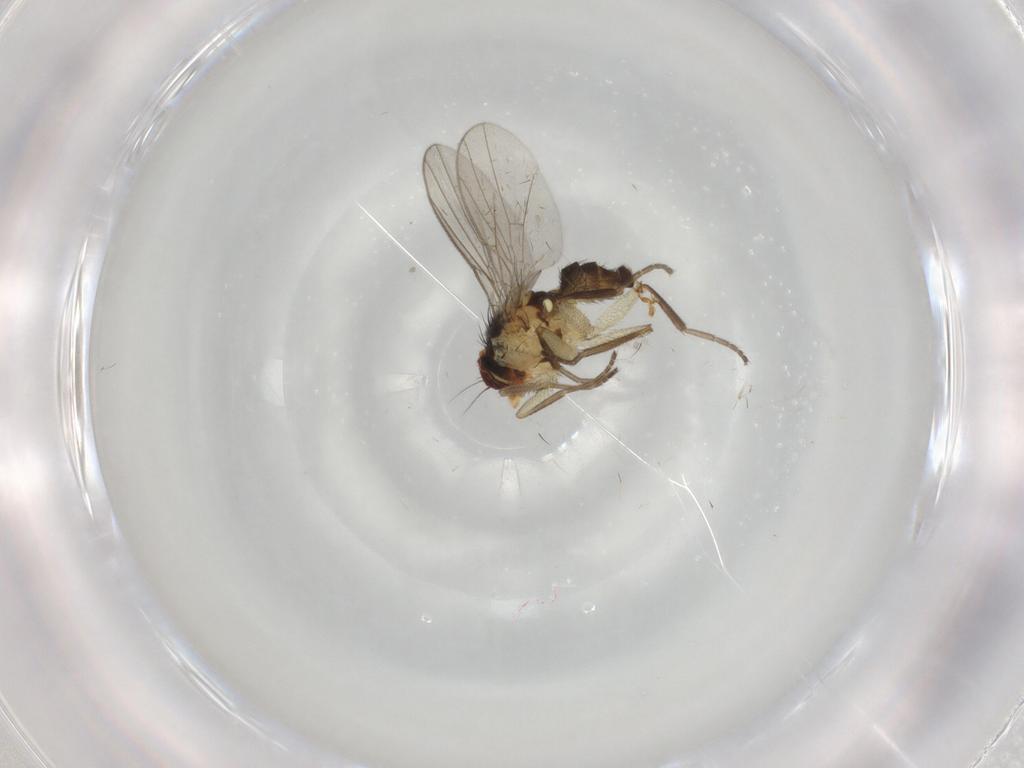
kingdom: Animalia
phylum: Arthropoda
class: Insecta
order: Diptera
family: Agromyzidae
